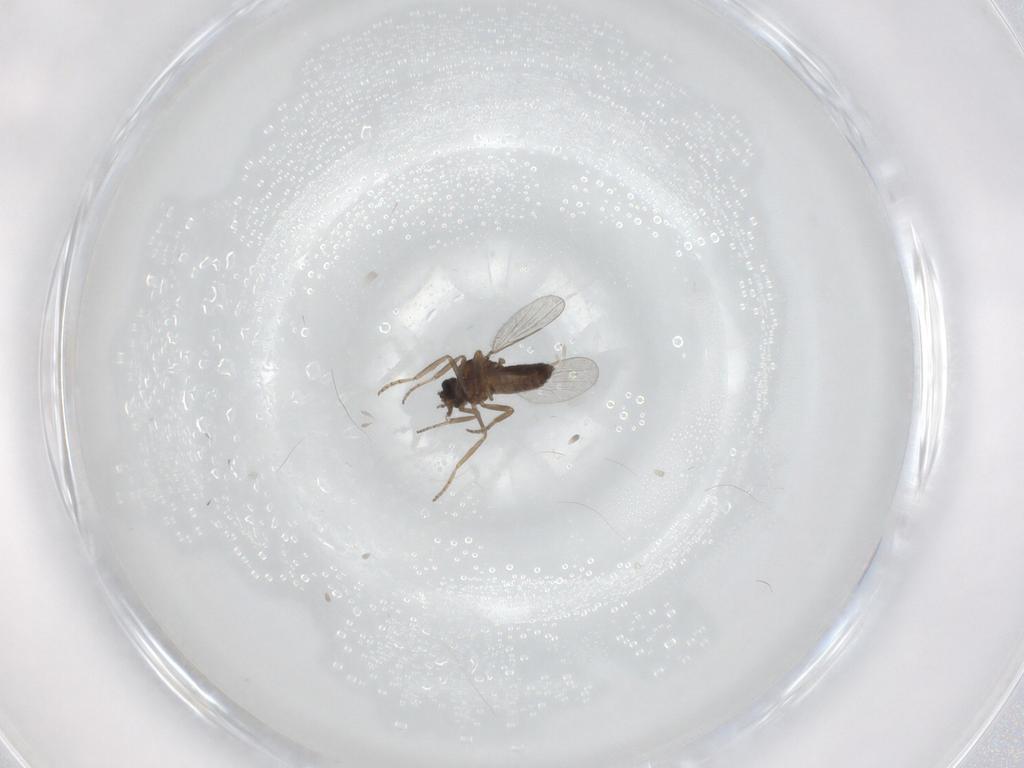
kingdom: Animalia
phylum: Arthropoda
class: Insecta
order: Diptera
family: Ceratopogonidae
